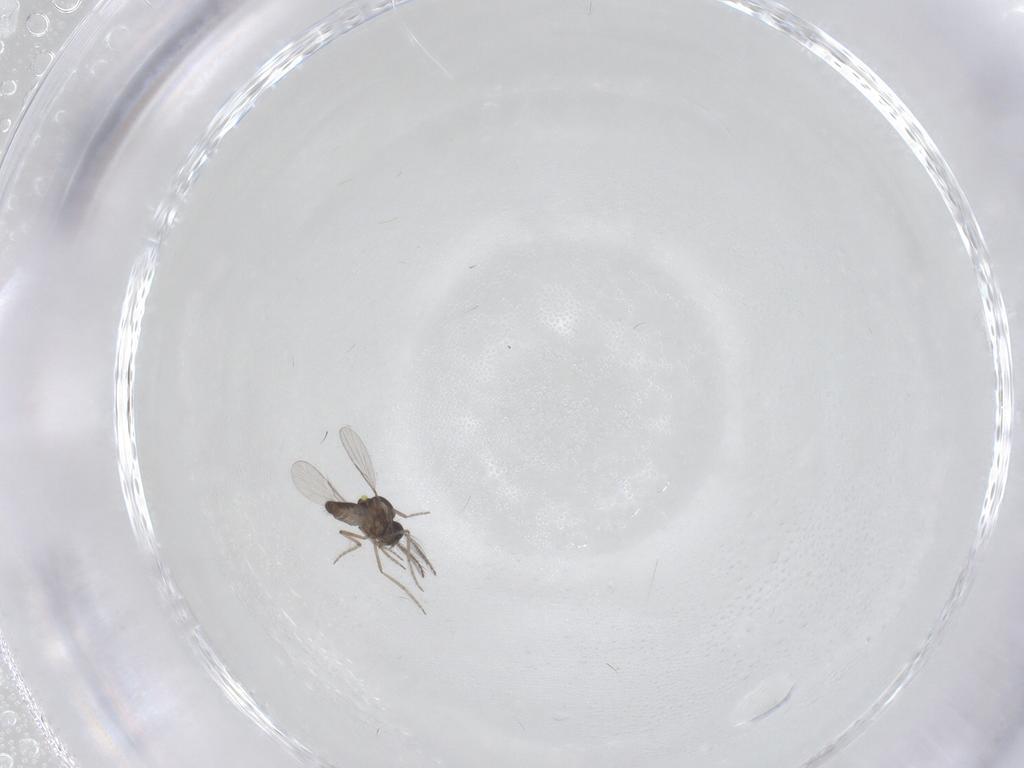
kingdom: Animalia
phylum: Arthropoda
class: Insecta
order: Diptera
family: Ceratopogonidae
